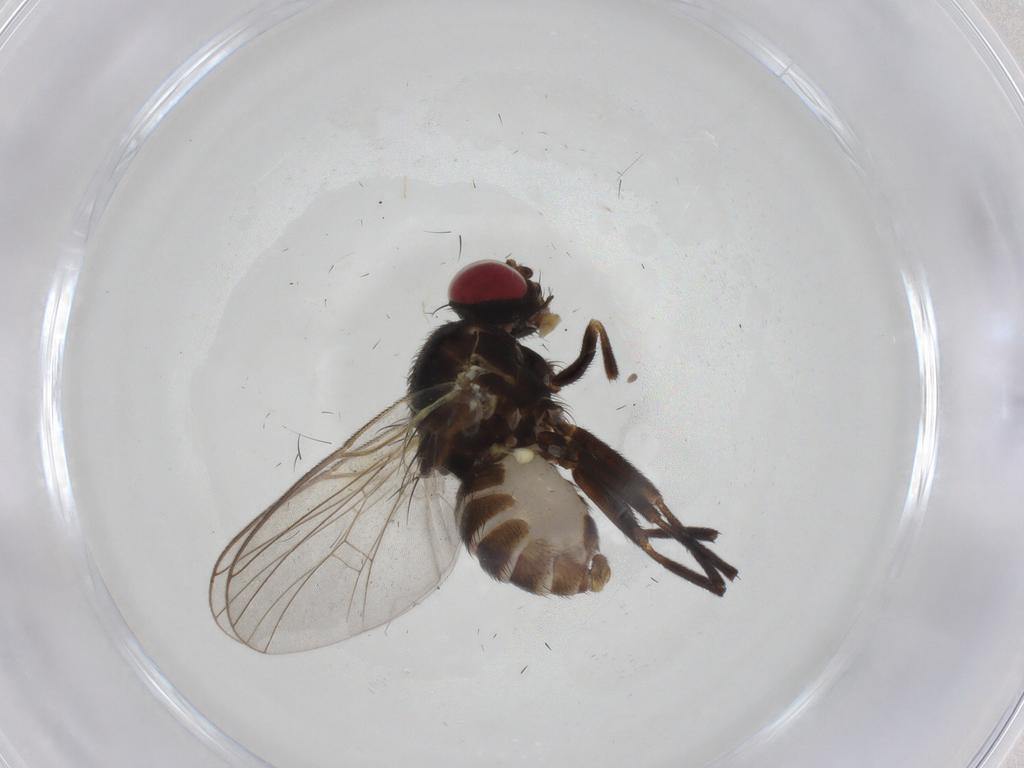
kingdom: Animalia
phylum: Arthropoda
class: Insecta
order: Diptera
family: Agromyzidae
